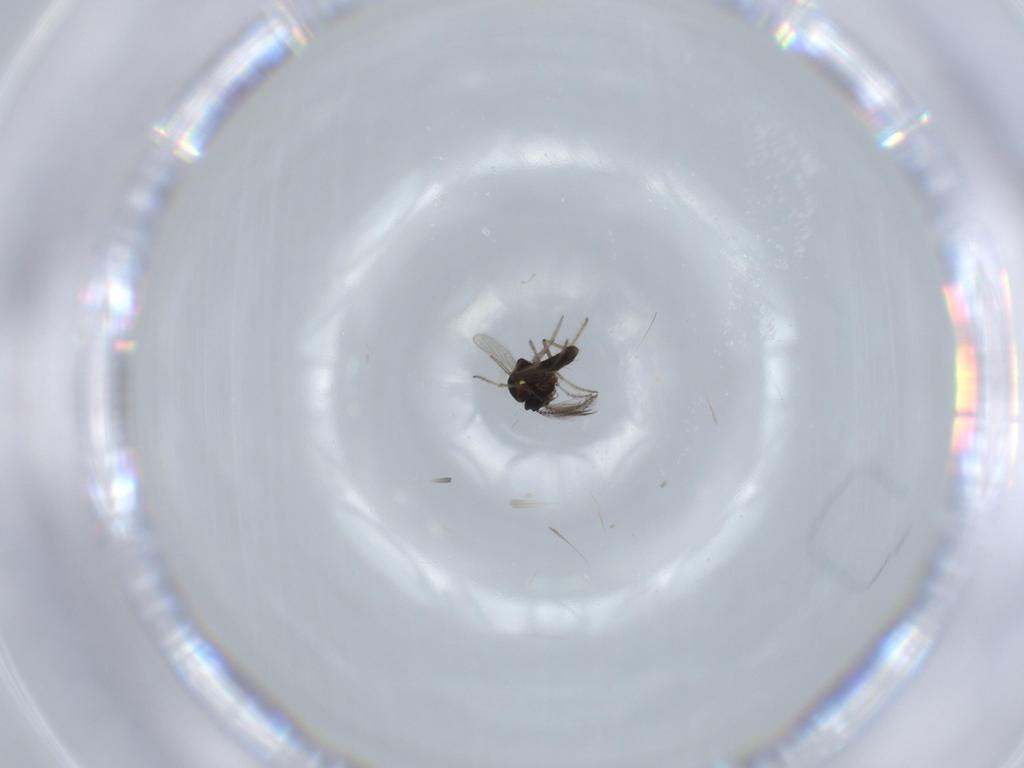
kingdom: Animalia
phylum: Arthropoda
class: Insecta
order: Diptera
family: Ceratopogonidae
